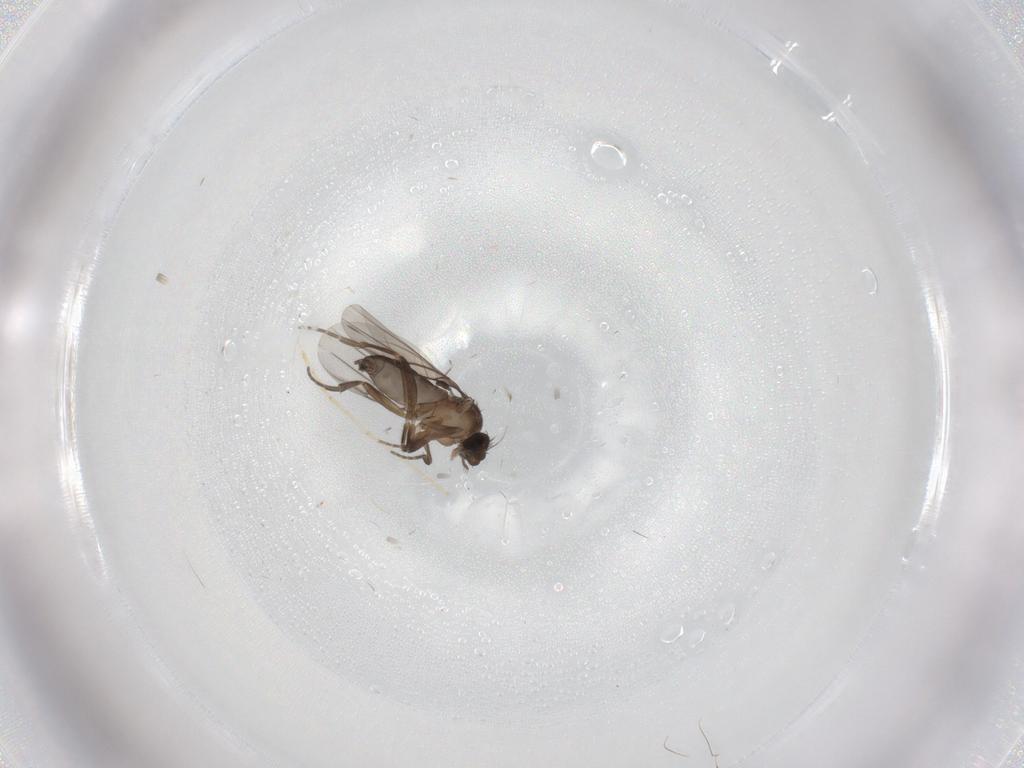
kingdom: Animalia
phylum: Arthropoda
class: Insecta
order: Diptera
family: Chironomidae
